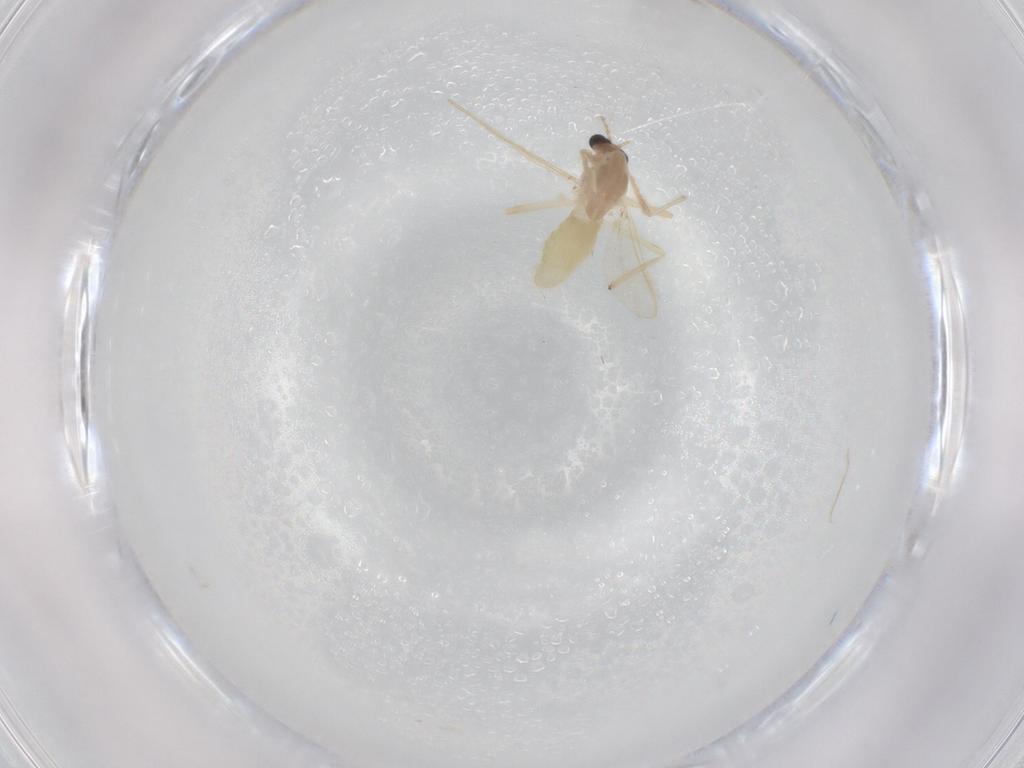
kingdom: Animalia
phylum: Arthropoda
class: Insecta
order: Diptera
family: Chironomidae
